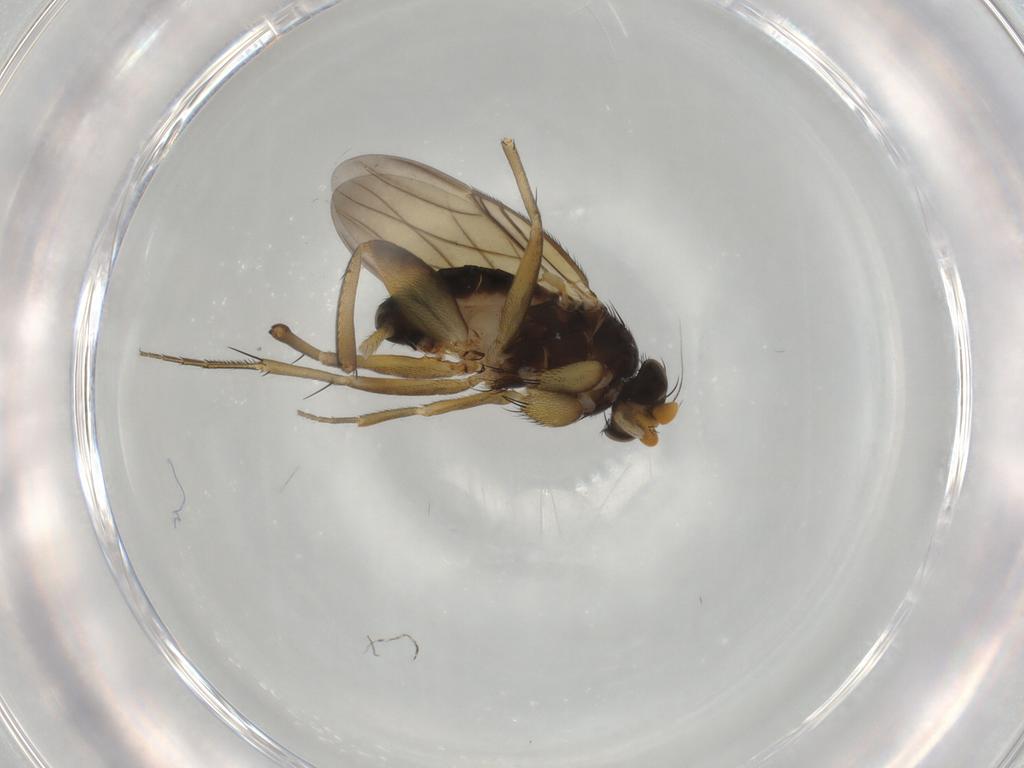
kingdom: Animalia
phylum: Arthropoda
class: Insecta
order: Diptera
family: Phoridae
